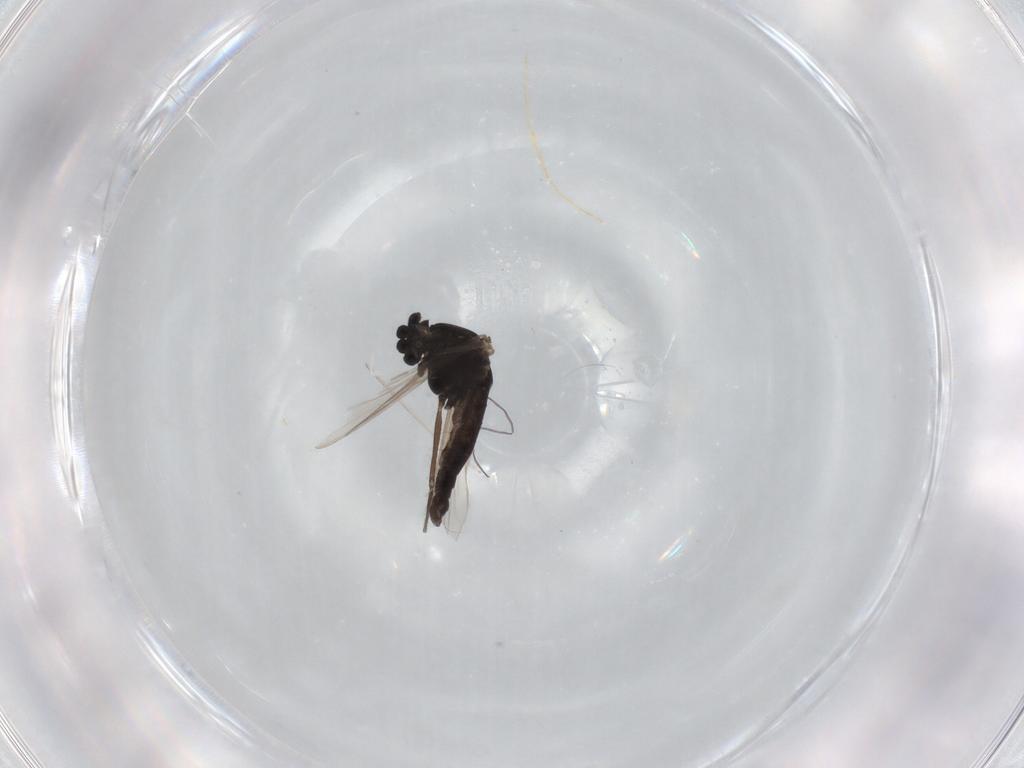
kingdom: Animalia
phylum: Arthropoda
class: Insecta
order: Diptera
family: Chironomidae
